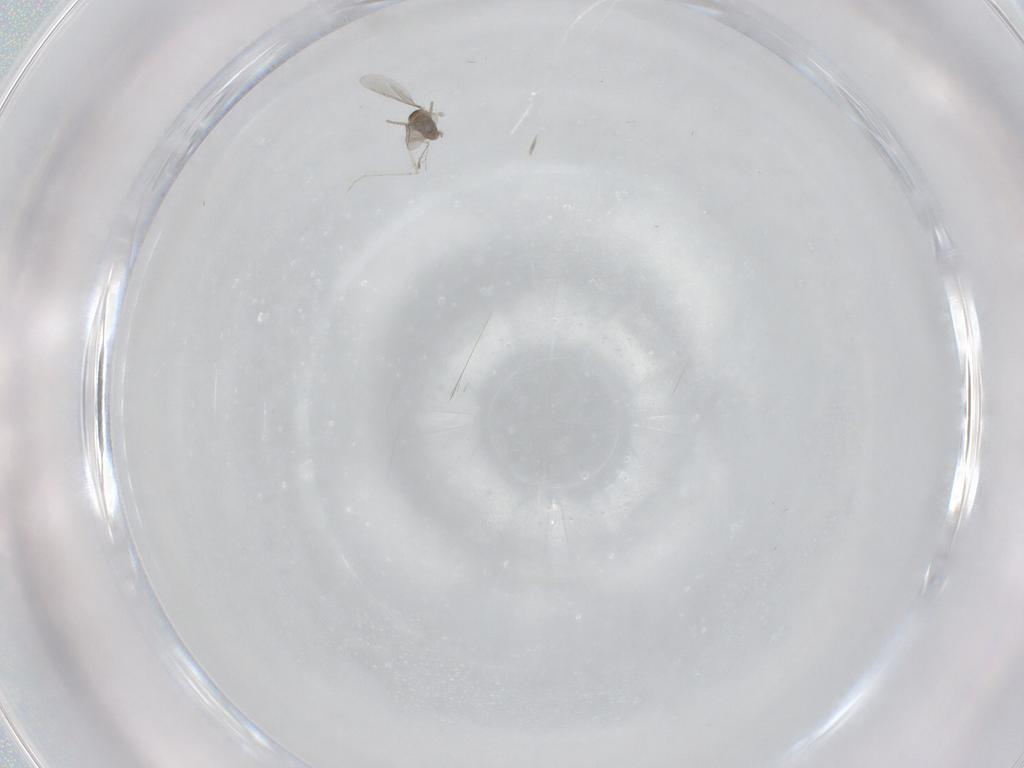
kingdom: Animalia
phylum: Arthropoda
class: Insecta
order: Diptera
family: Cecidomyiidae
